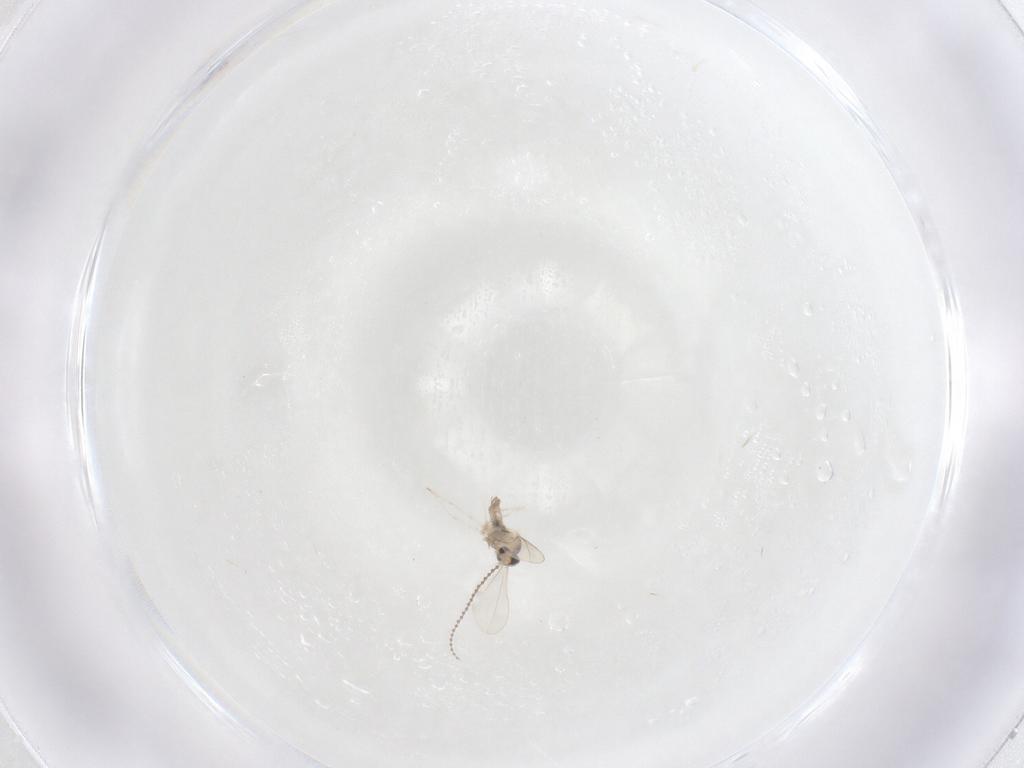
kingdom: Animalia
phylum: Arthropoda
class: Insecta
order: Diptera
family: Cecidomyiidae
